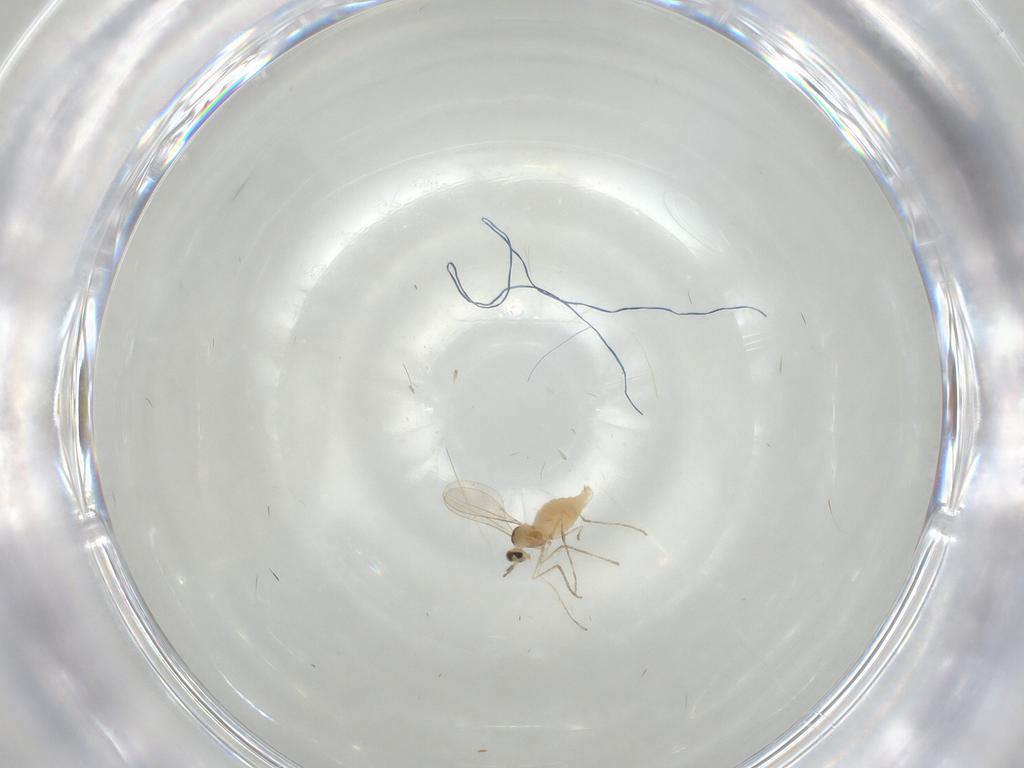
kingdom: Animalia
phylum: Arthropoda
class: Insecta
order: Diptera
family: Cecidomyiidae
